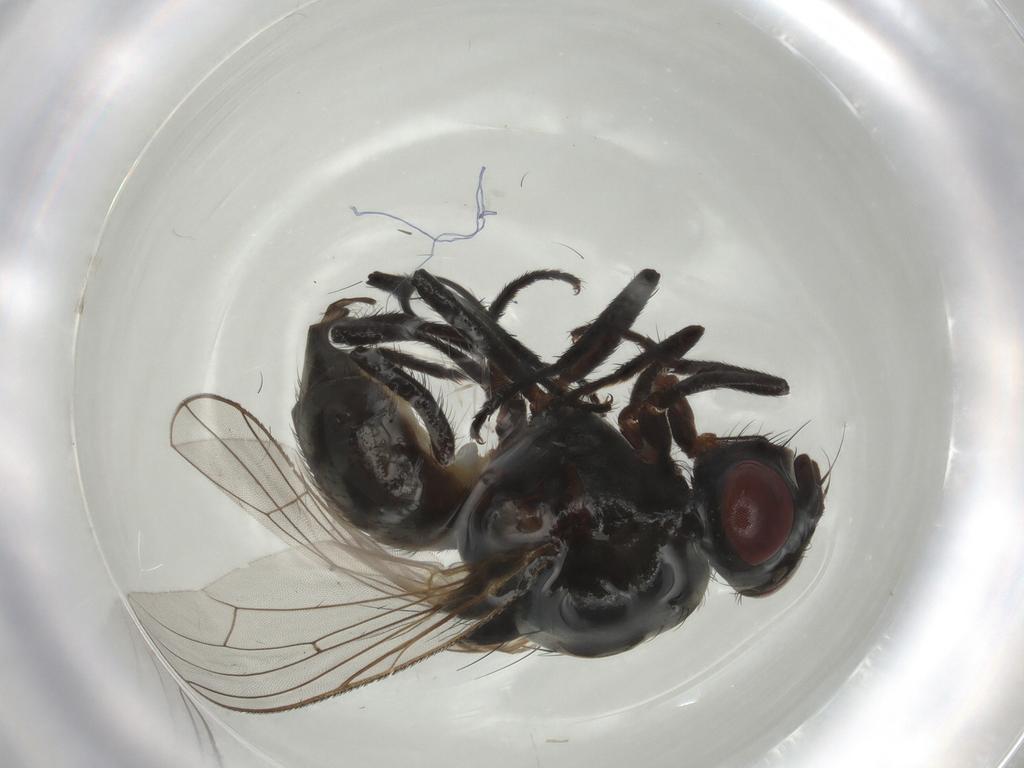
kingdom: Animalia
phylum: Arthropoda
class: Insecta
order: Diptera
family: Anthomyiidae
